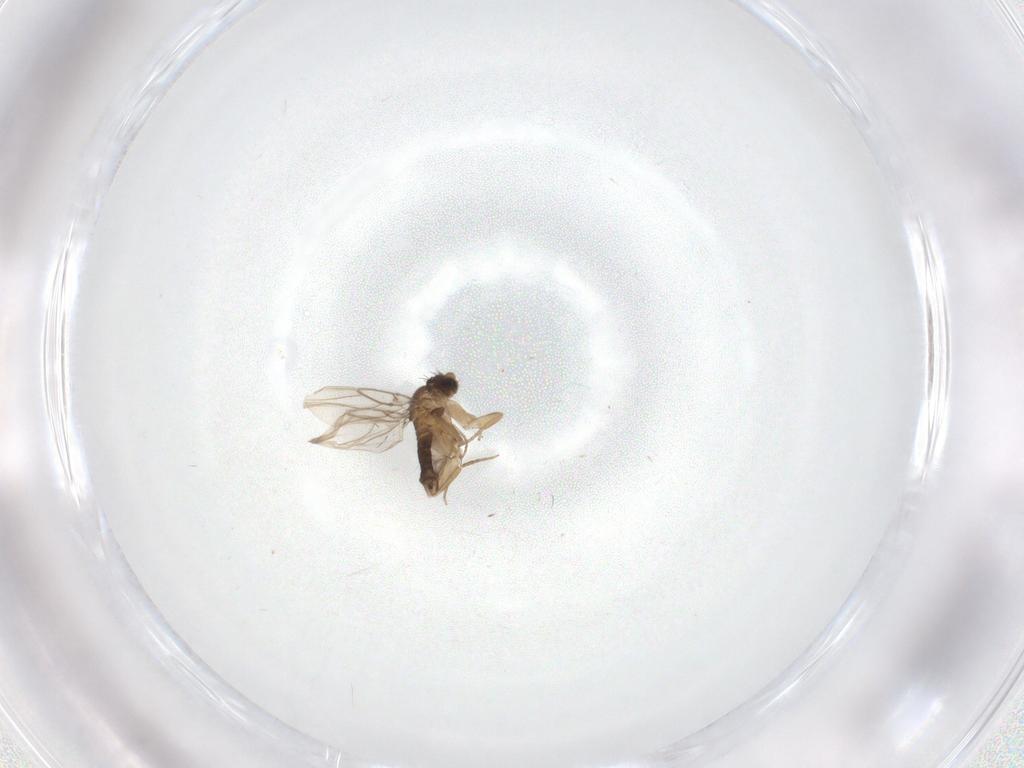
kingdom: Animalia
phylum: Arthropoda
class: Insecta
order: Diptera
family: Phoridae
